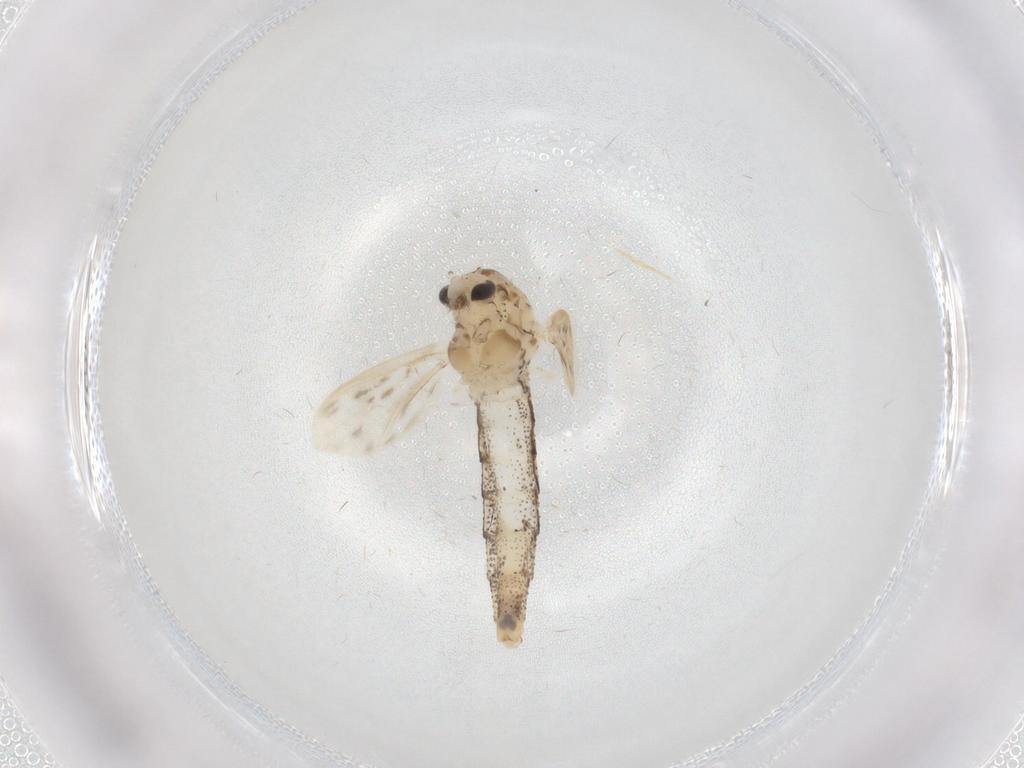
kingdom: Animalia
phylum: Arthropoda
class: Insecta
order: Diptera
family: Chaoboridae
